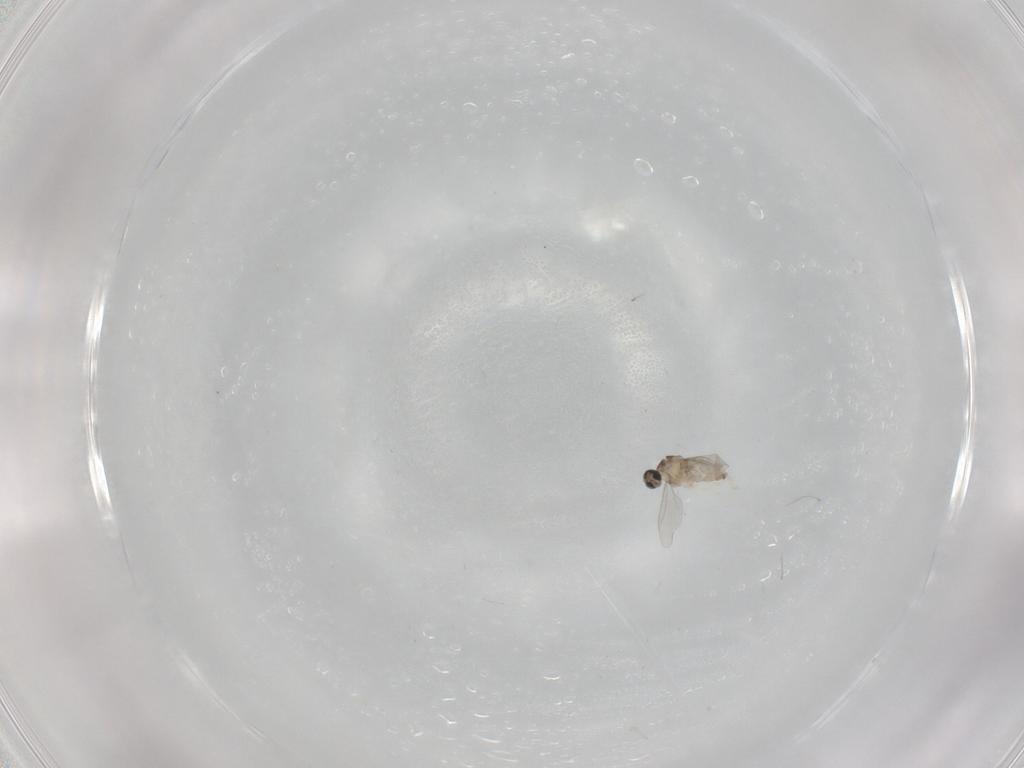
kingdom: Animalia
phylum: Arthropoda
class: Insecta
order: Diptera
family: Cecidomyiidae
